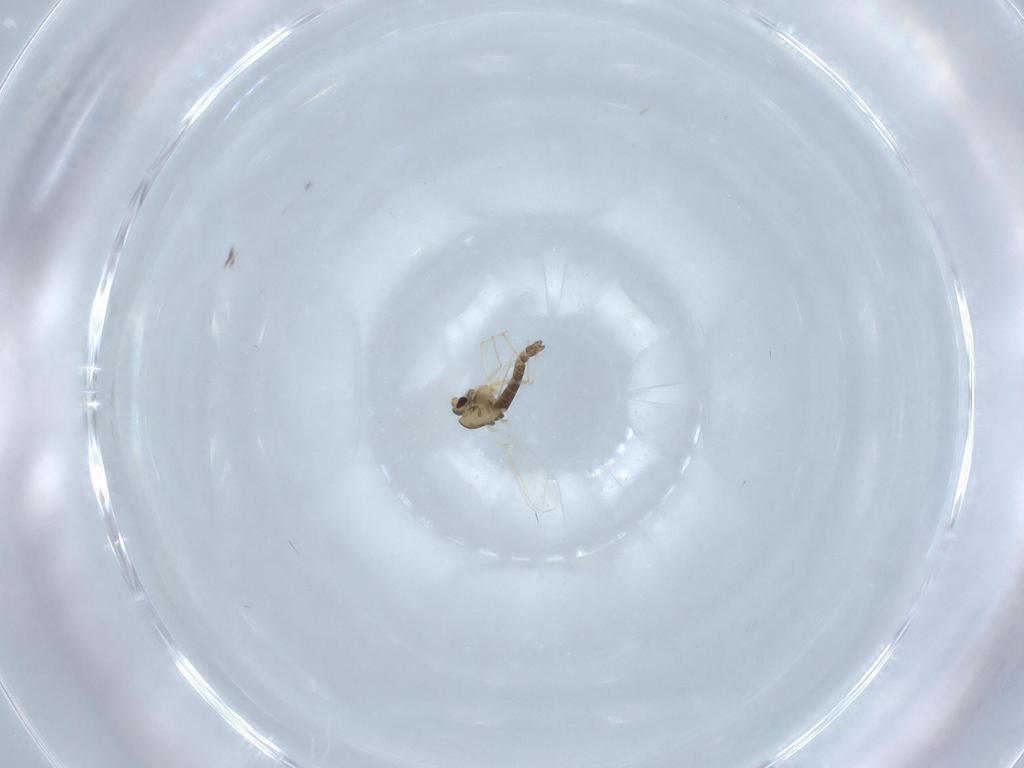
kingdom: Animalia
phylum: Arthropoda
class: Insecta
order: Diptera
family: Chironomidae
